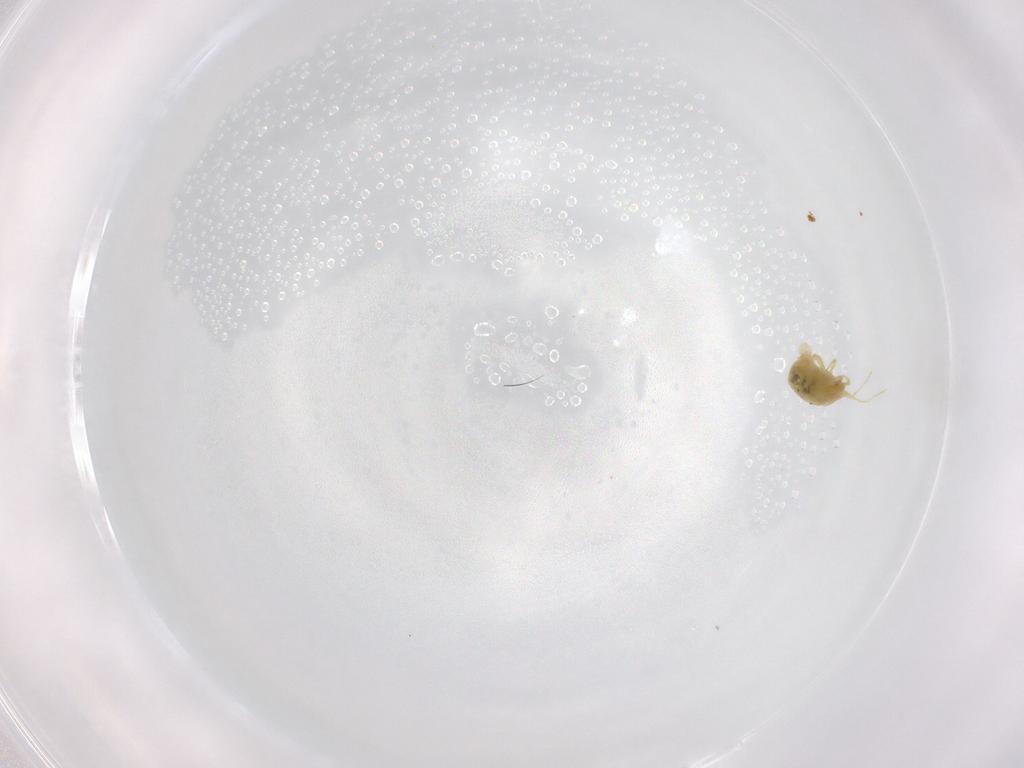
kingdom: Animalia
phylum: Arthropoda
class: Arachnida
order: Trombidiformes
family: Tetranychidae
